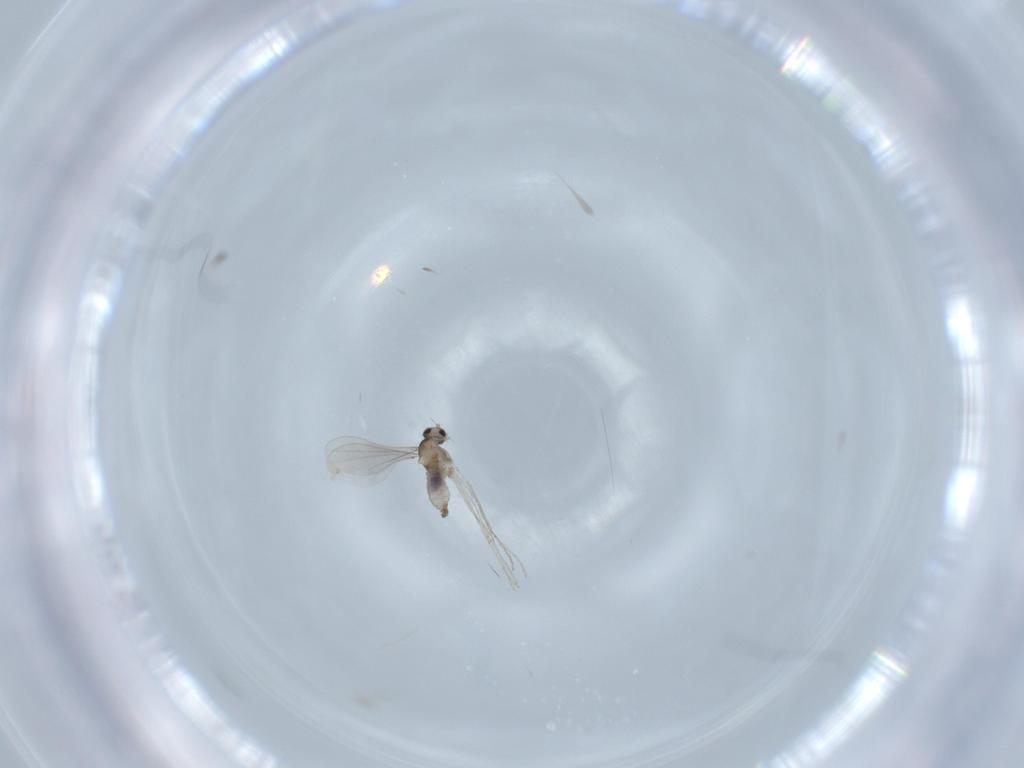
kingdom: Animalia
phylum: Arthropoda
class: Insecta
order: Diptera
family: Cecidomyiidae
